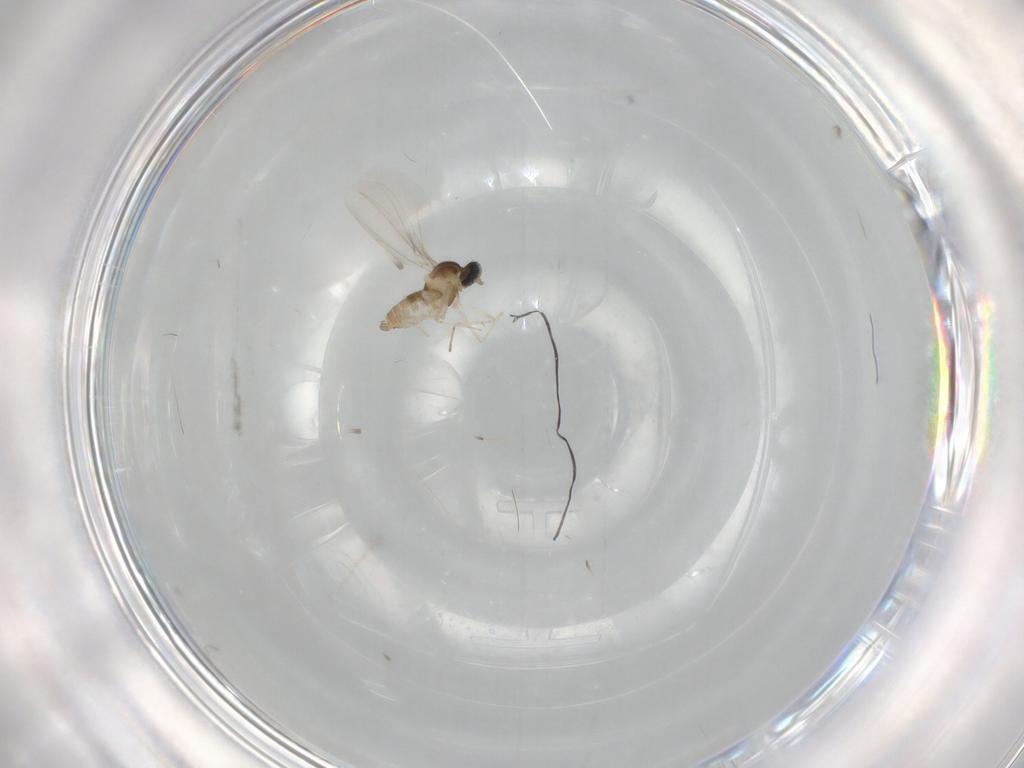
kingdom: Animalia
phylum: Arthropoda
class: Insecta
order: Diptera
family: Cecidomyiidae
